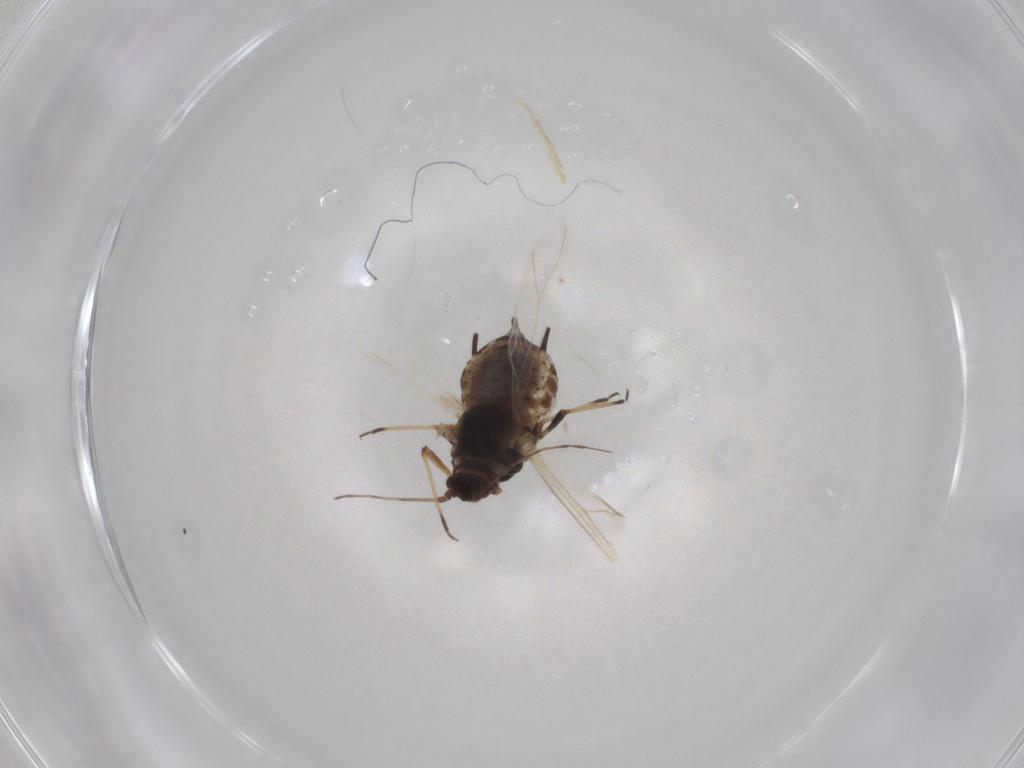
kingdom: Animalia
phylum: Arthropoda
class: Insecta
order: Hemiptera
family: Aphididae
